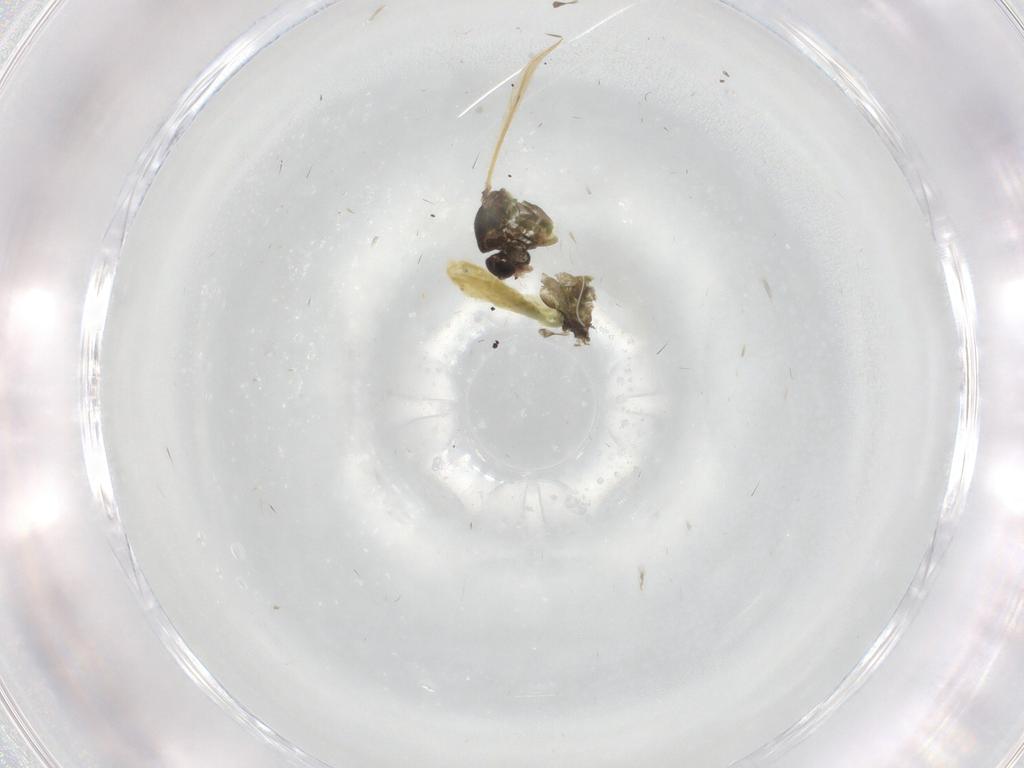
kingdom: Animalia
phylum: Arthropoda
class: Insecta
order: Diptera
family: Chironomidae
